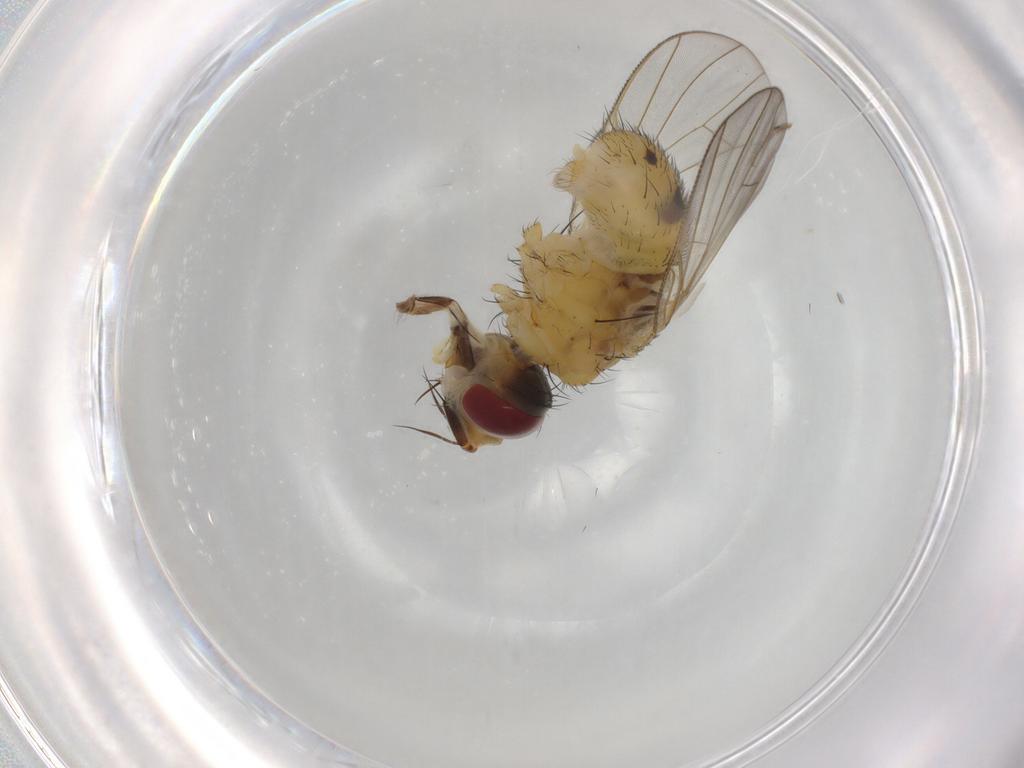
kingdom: Animalia
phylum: Arthropoda
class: Insecta
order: Diptera
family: Muscidae
